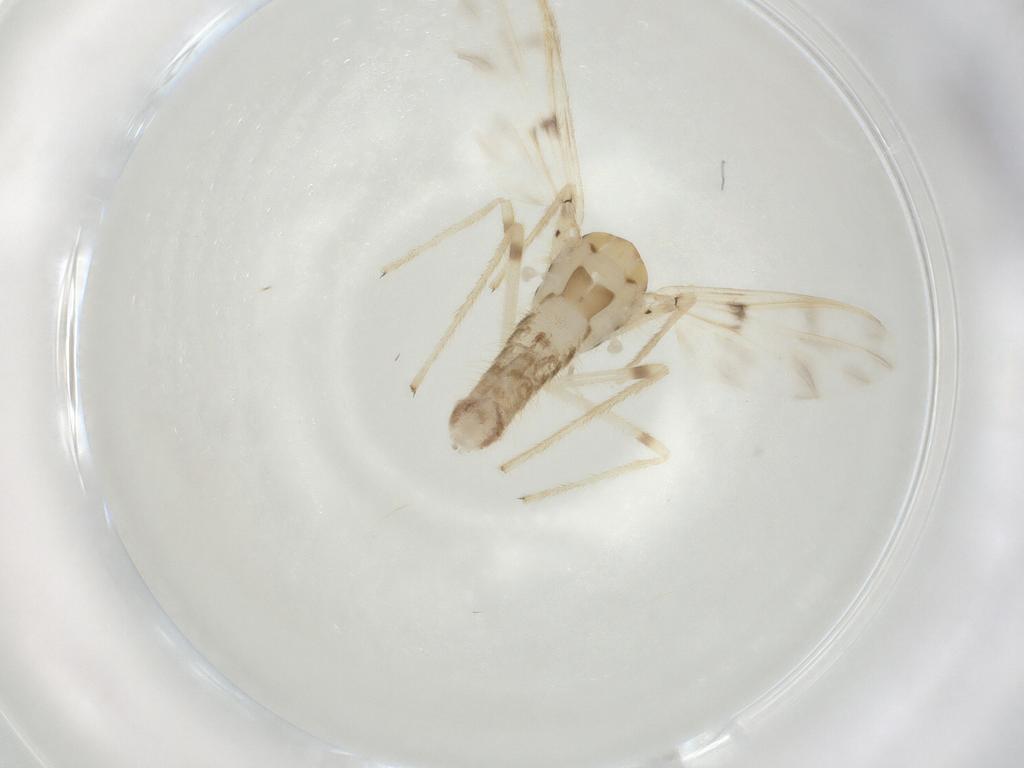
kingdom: Animalia
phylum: Arthropoda
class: Insecta
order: Diptera
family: Chironomidae
